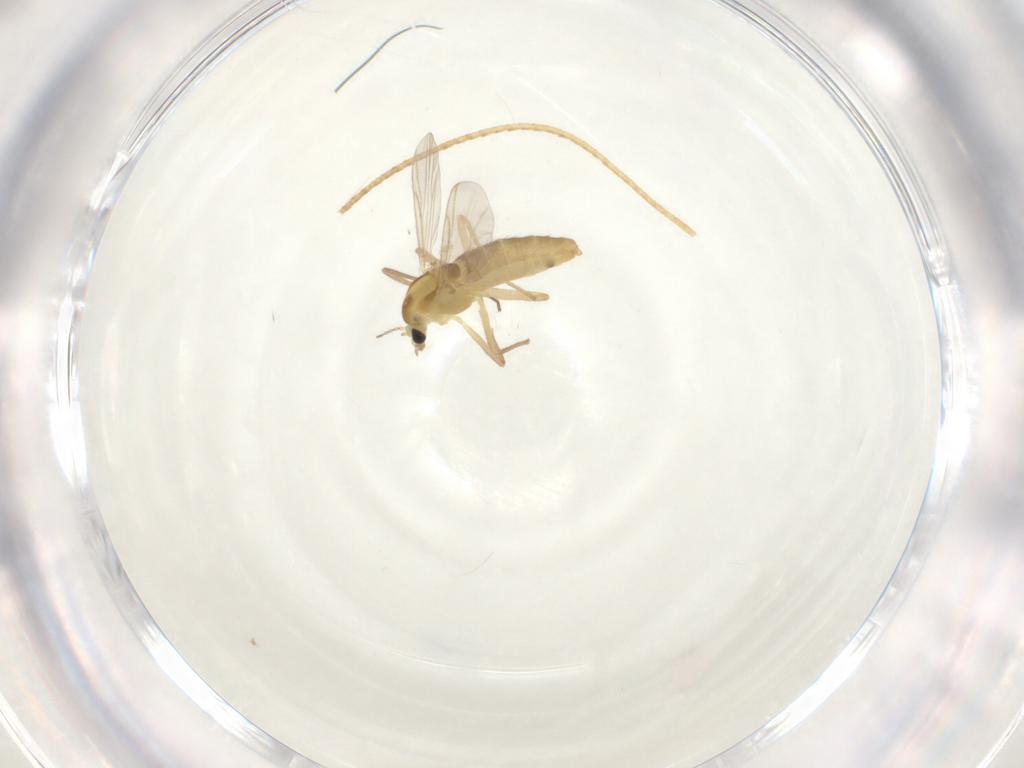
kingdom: Animalia
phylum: Arthropoda
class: Insecta
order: Diptera
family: Chironomidae
